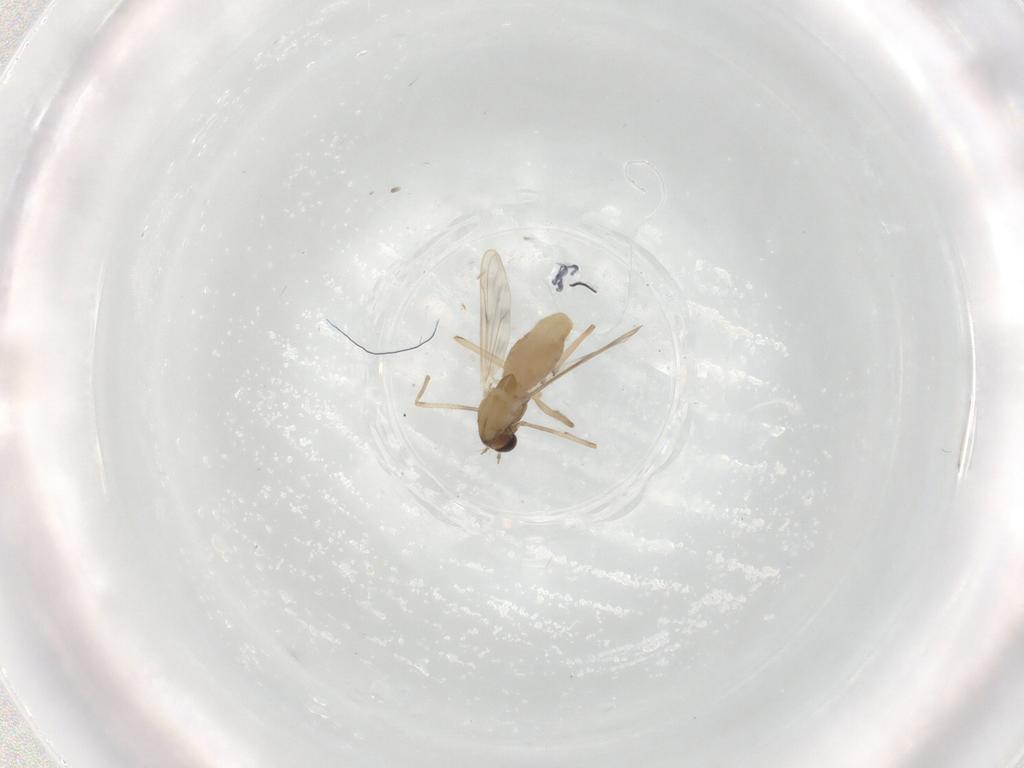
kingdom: Animalia
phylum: Arthropoda
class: Insecta
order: Diptera
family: Chironomidae
